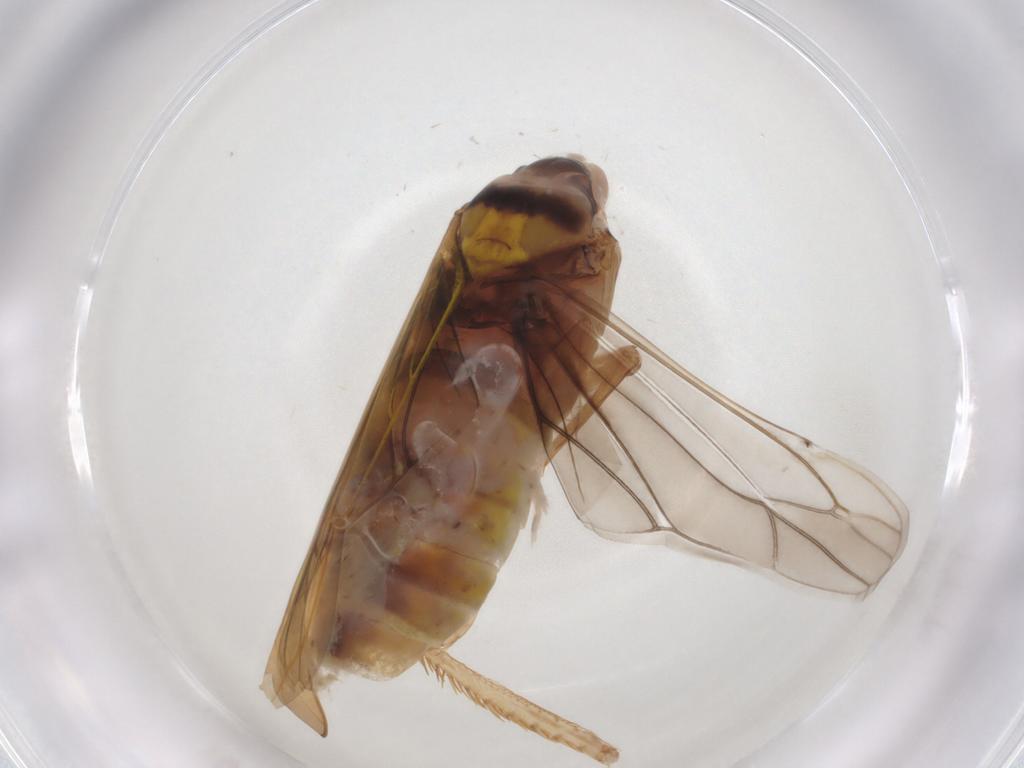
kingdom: Animalia
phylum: Arthropoda
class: Insecta
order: Hemiptera
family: Cicadellidae
